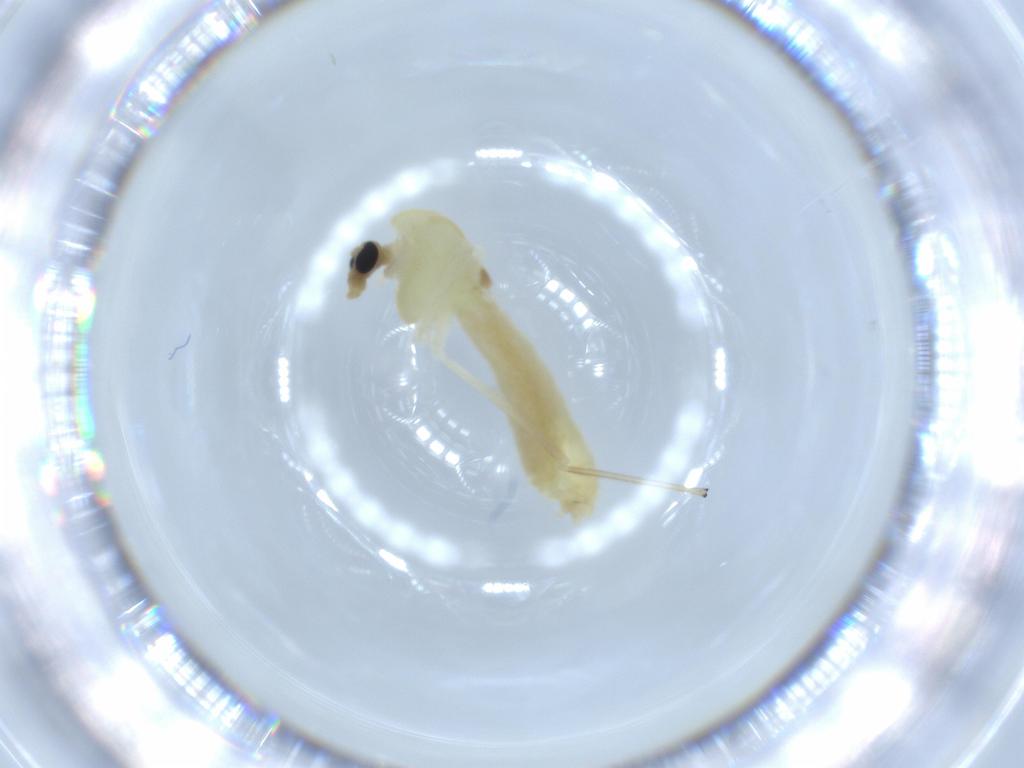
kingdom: Animalia
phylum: Arthropoda
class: Insecta
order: Diptera
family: Chironomidae
